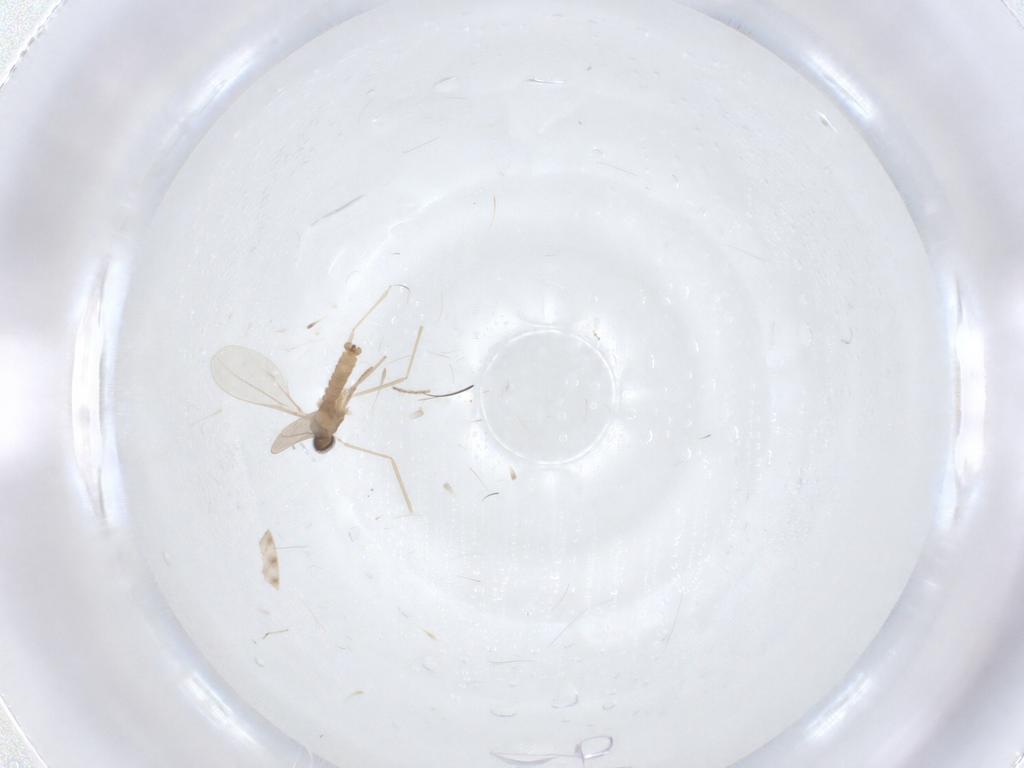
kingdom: Animalia
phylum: Arthropoda
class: Insecta
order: Diptera
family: Cecidomyiidae
